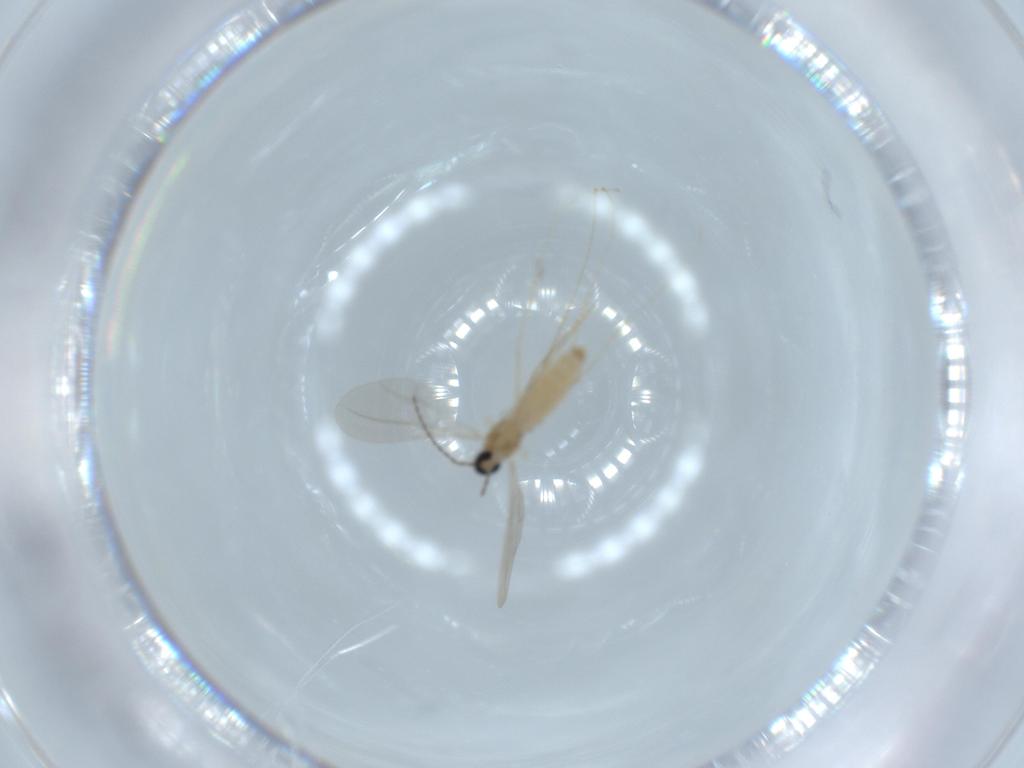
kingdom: Animalia
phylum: Arthropoda
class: Insecta
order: Diptera
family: Cecidomyiidae
